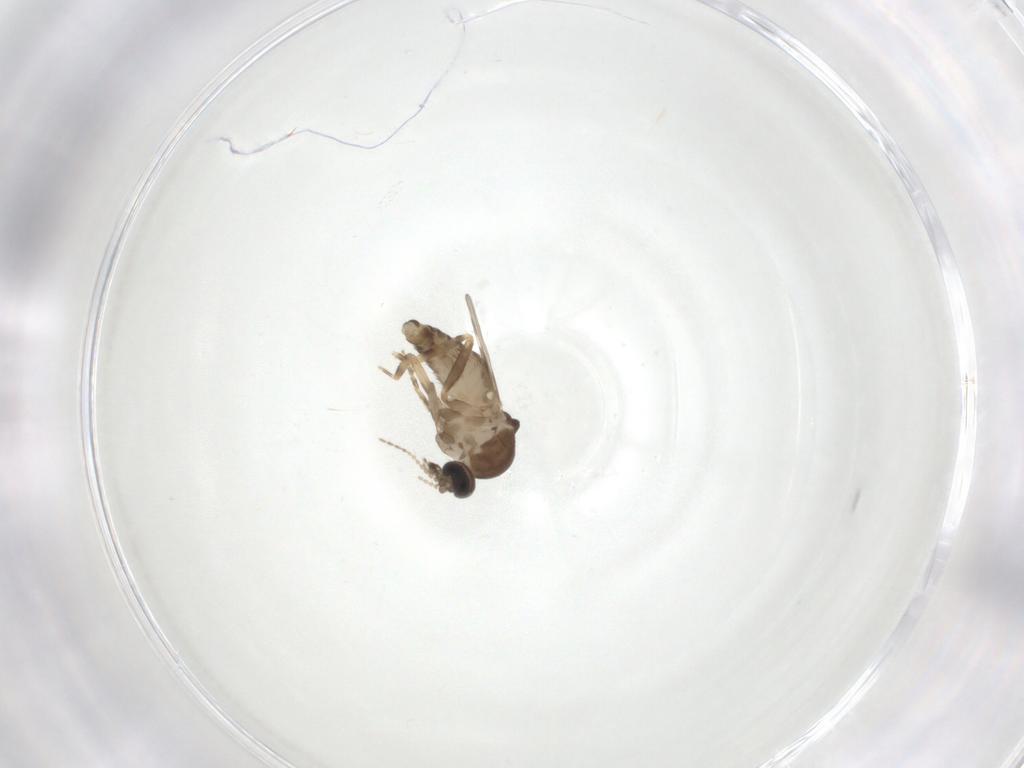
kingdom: Animalia
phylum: Arthropoda
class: Insecta
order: Diptera
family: Ceratopogonidae
